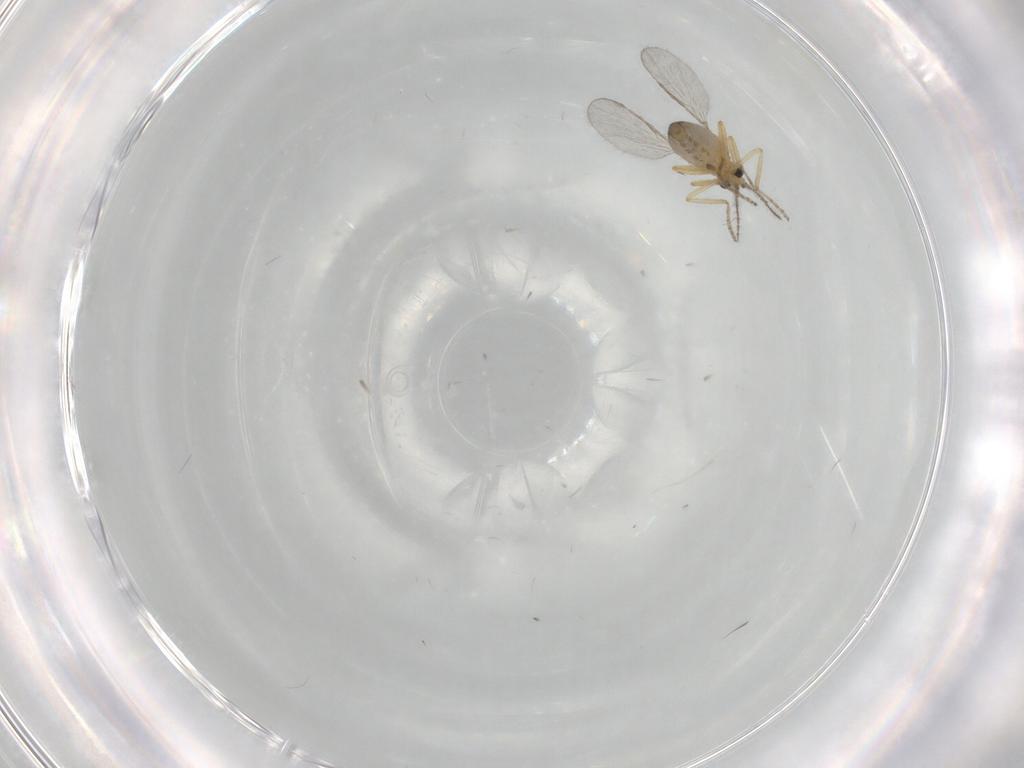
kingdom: Animalia
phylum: Arthropoda
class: Insecta
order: Diptera
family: Ceratopogonidae
